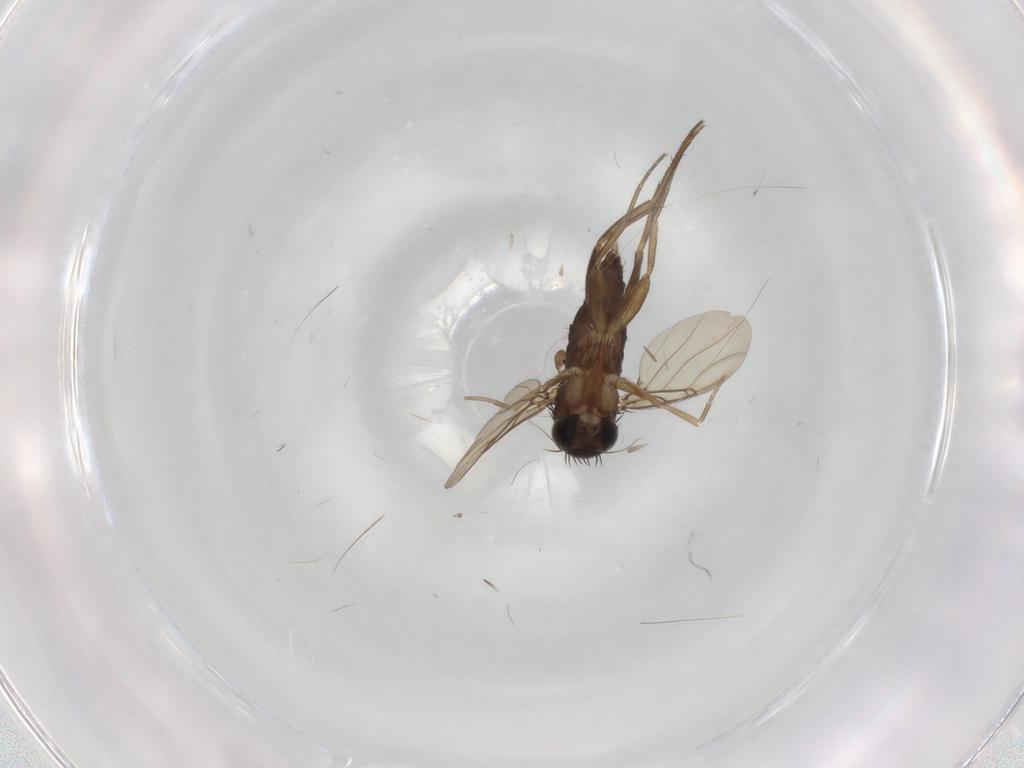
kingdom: Animalia
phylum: Arthropoda
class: Insecta
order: Diptera
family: Phoridae
